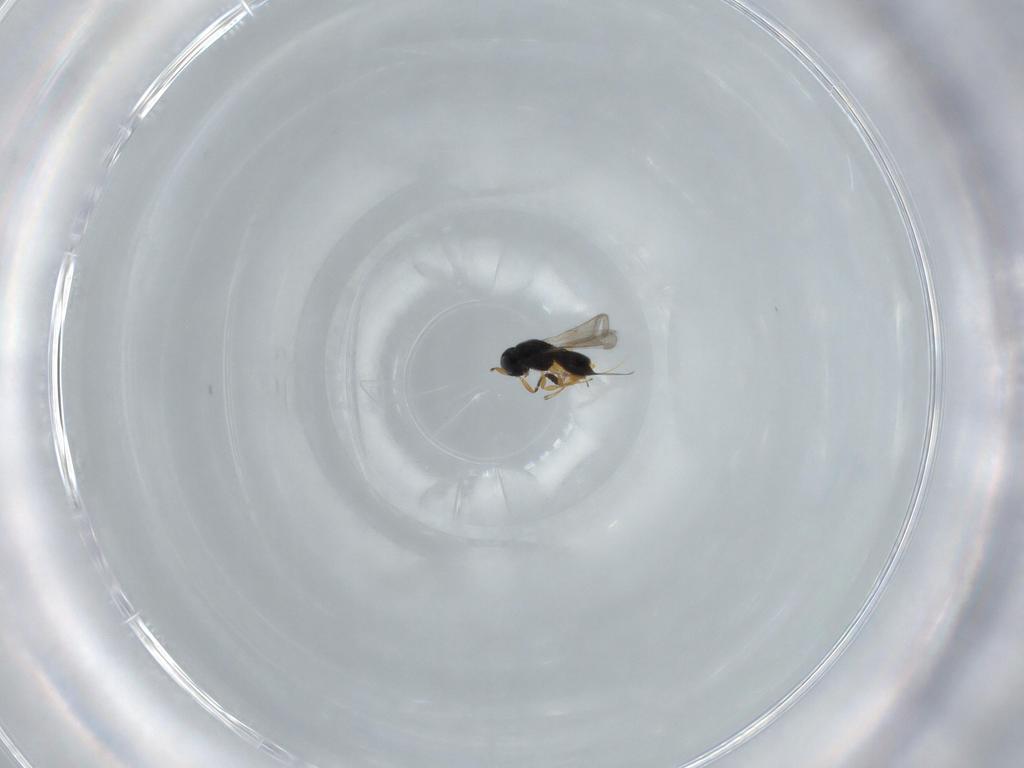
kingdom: Animalia
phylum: Arthropoda
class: Insecta
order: Hymenoptera
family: Scelionidae
